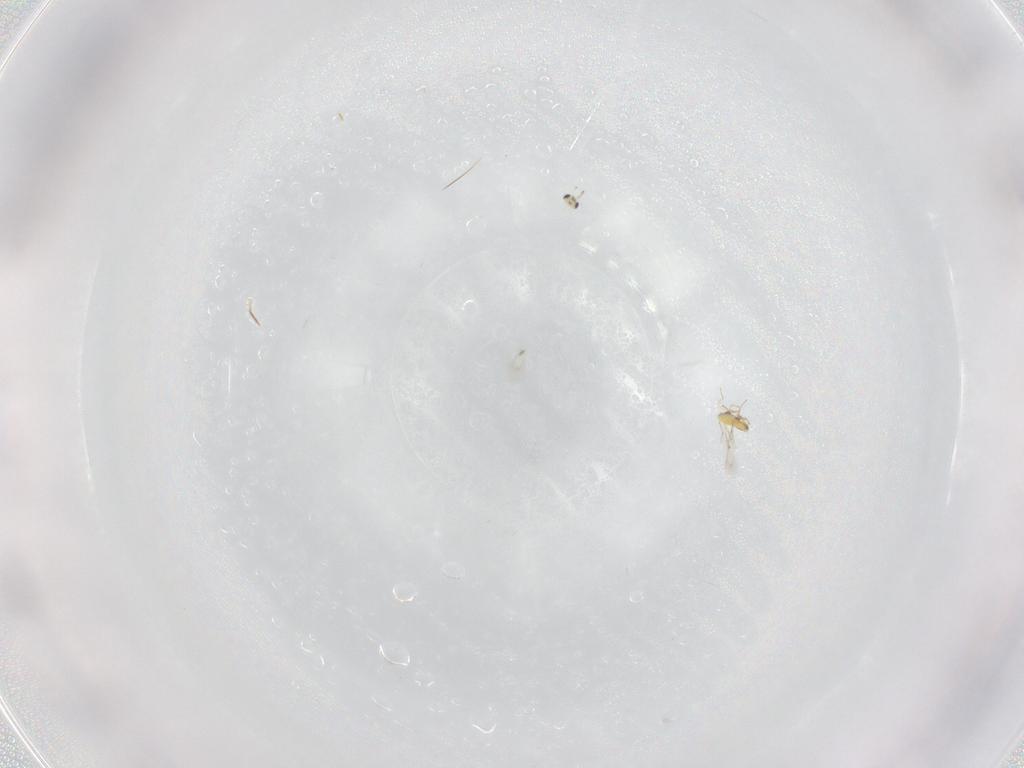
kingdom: Animalia
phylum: Arthropoda
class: Insecta
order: Hymenoptera
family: Trichogrammatidae
